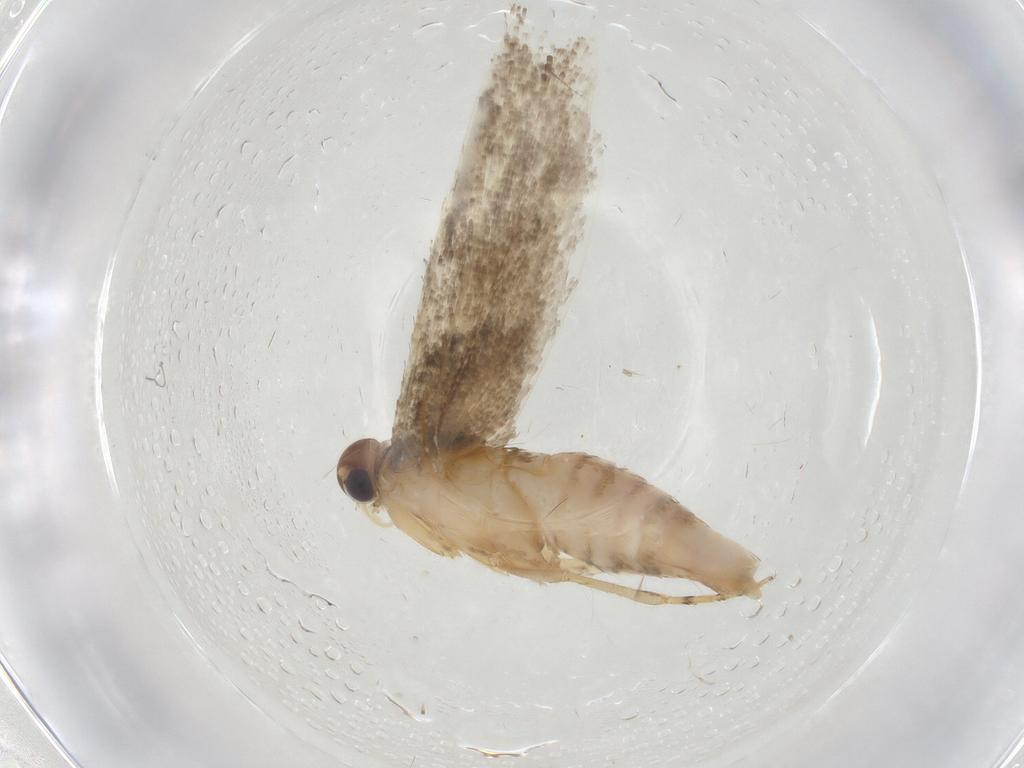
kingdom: Animalia
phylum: Arthropoda
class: Insecta
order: Lepidoptera
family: Gelechiidae
